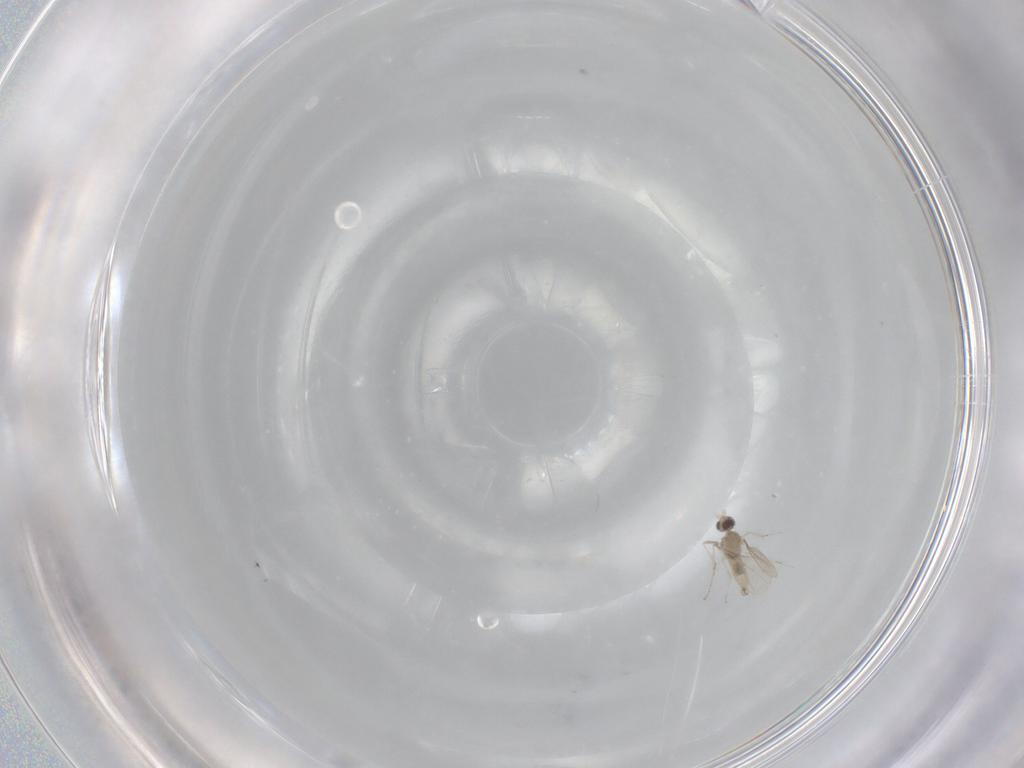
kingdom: Animalia
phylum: Arthropoda
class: Insecta
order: Diptera
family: Cecidomyiidae
